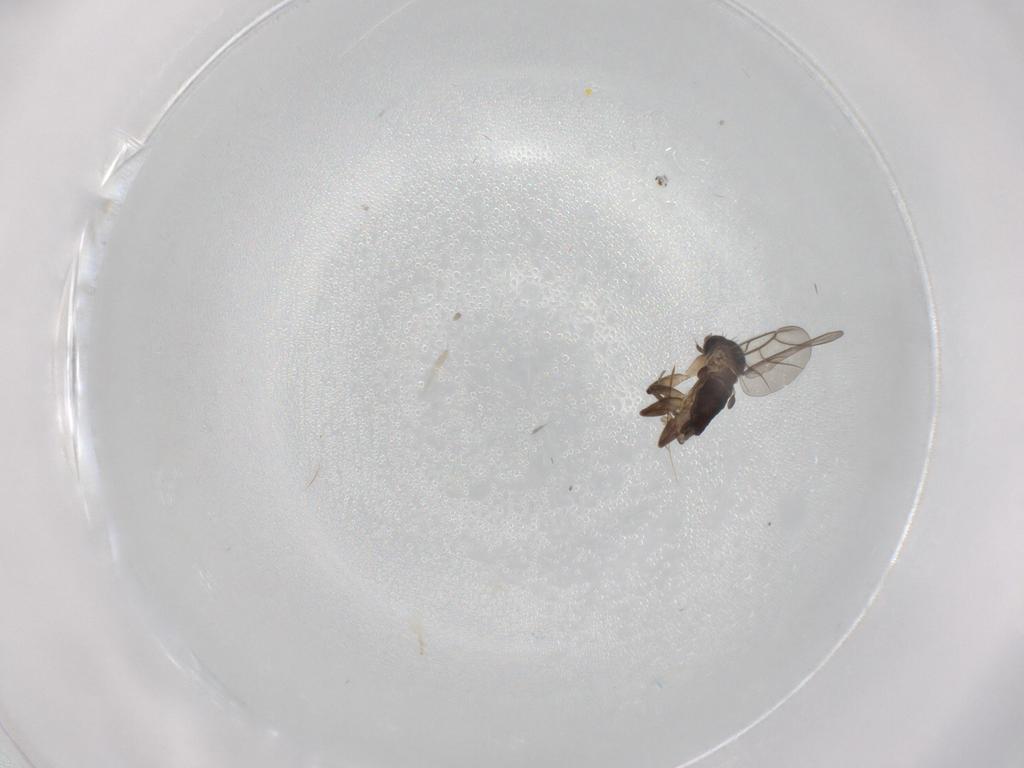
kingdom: Animalia
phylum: Arthropoda
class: Insecta
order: Diptera
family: Phoridae
